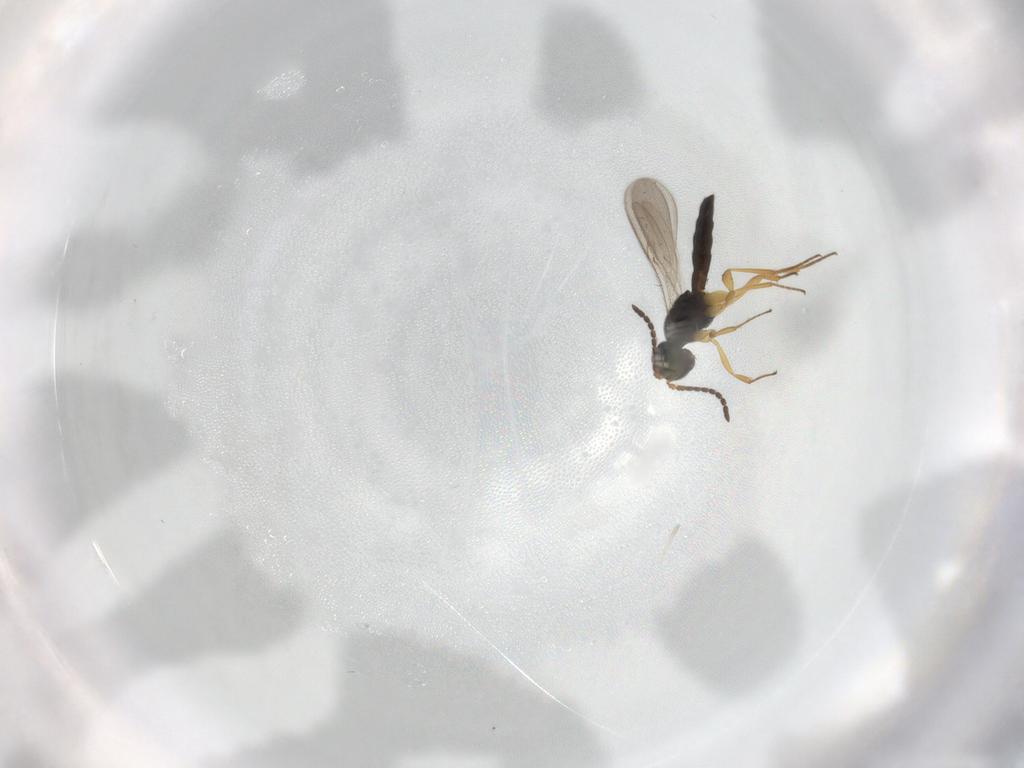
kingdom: Animalia
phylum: Arthropoda
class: Insecta
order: Hymenoptera
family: Scelionidae
